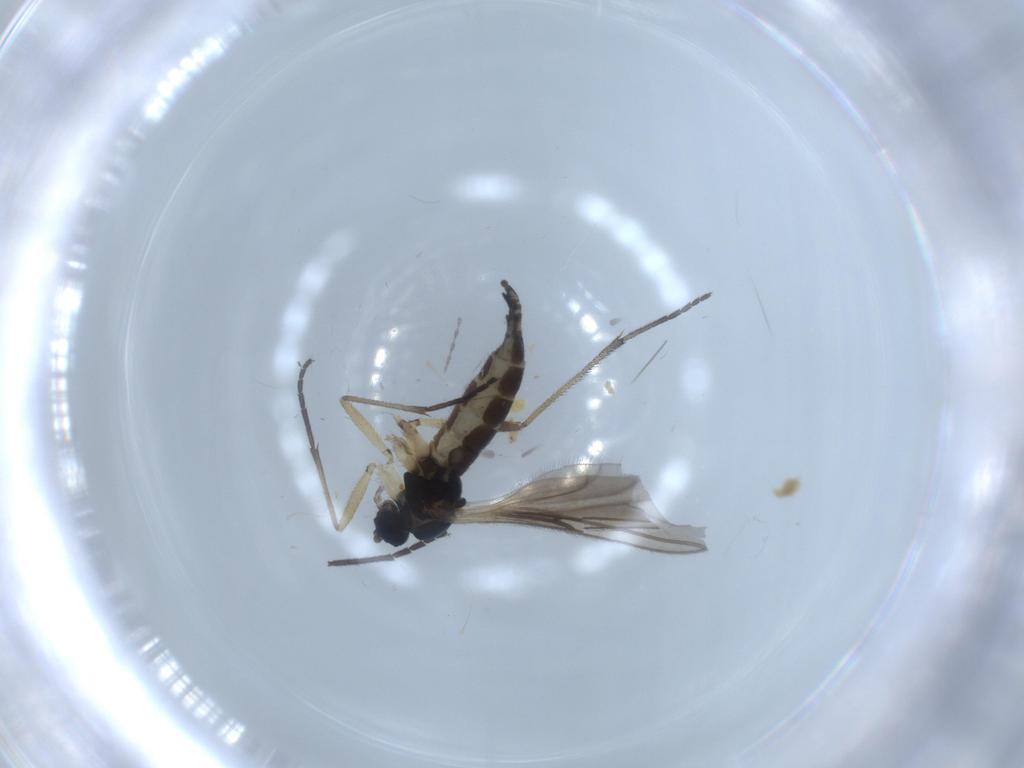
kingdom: Animalia
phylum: Arthropoda
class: Insecta
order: Diptera
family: Sciaridae
